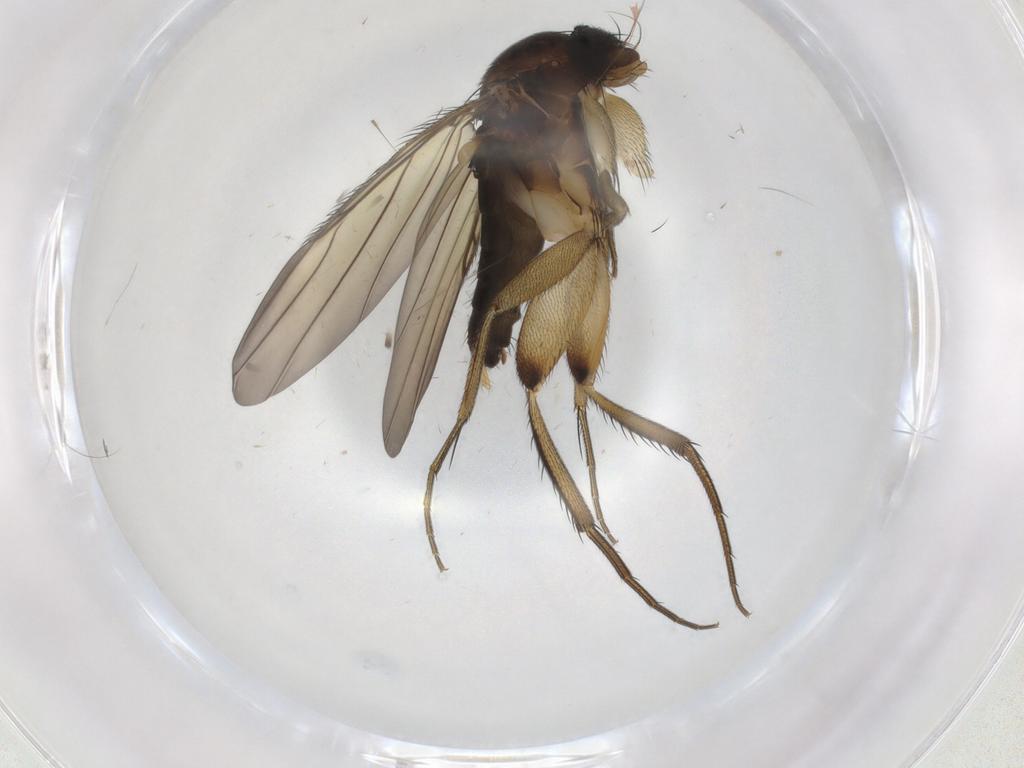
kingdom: Animalia
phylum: Arthropoda
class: Insecta
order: Diptera
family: Phoridae
